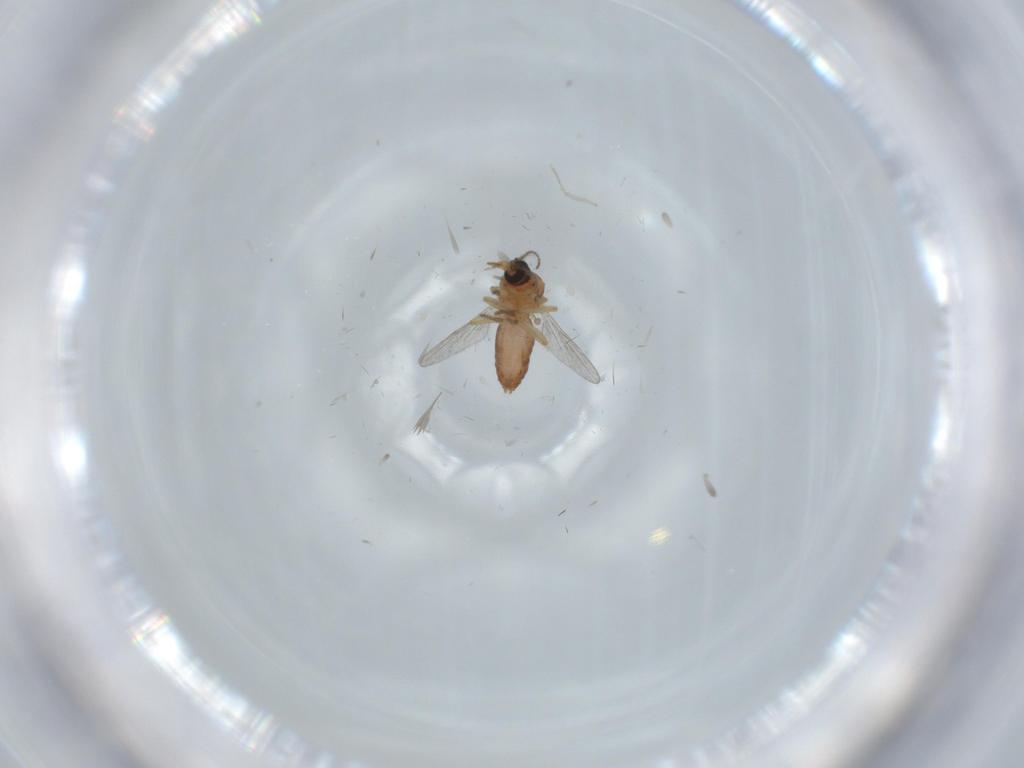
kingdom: Animalia
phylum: Arthropoda
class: Insecta
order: Diptera
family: Ceratopogonidae
